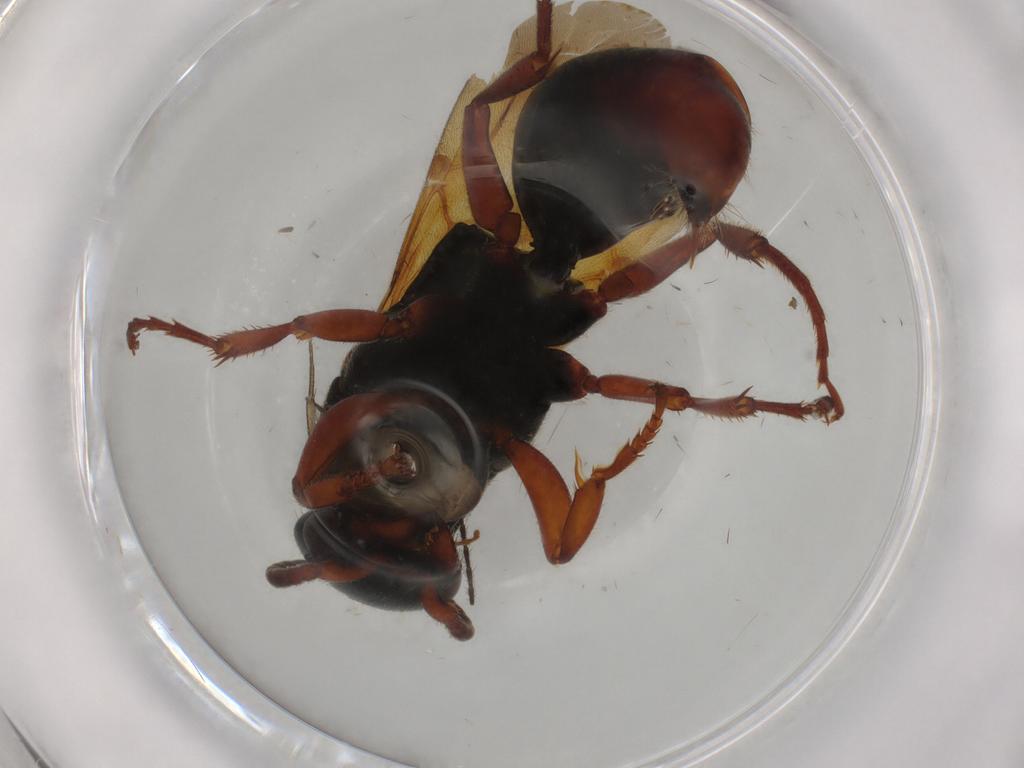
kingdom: Animalia
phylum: Arthropoda
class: Insecta
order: Hymenoptera
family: Bethylidae
